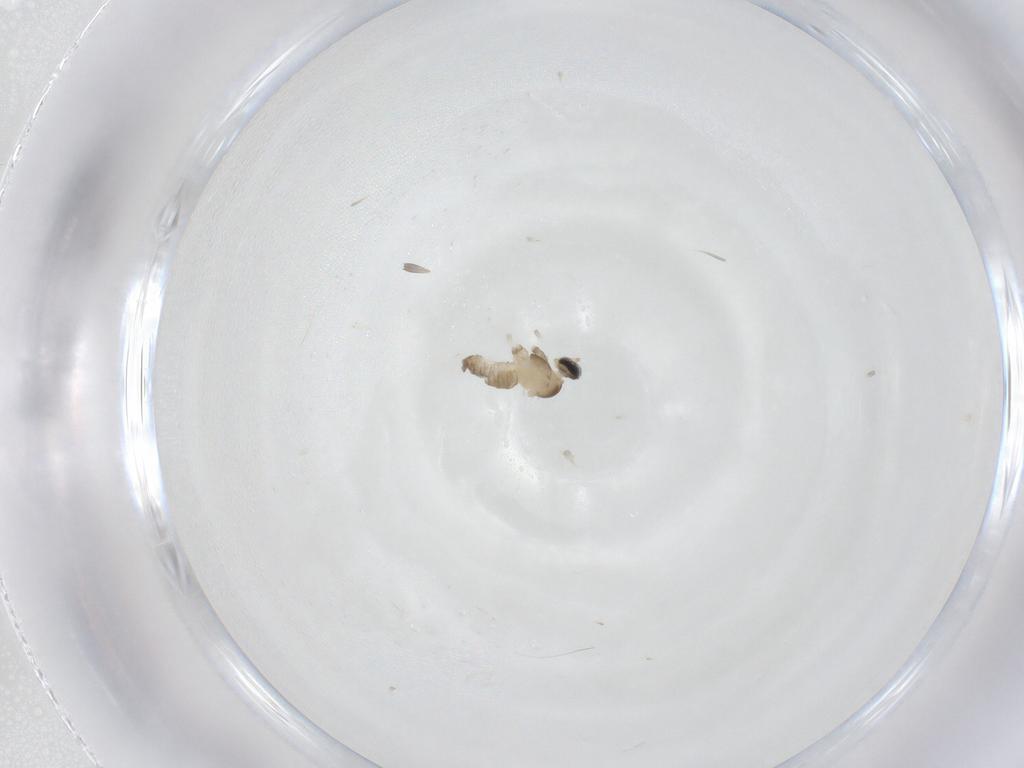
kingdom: Animalia
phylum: Arthropoda
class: Insecta
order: Diptera
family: Cecidomyiidae
